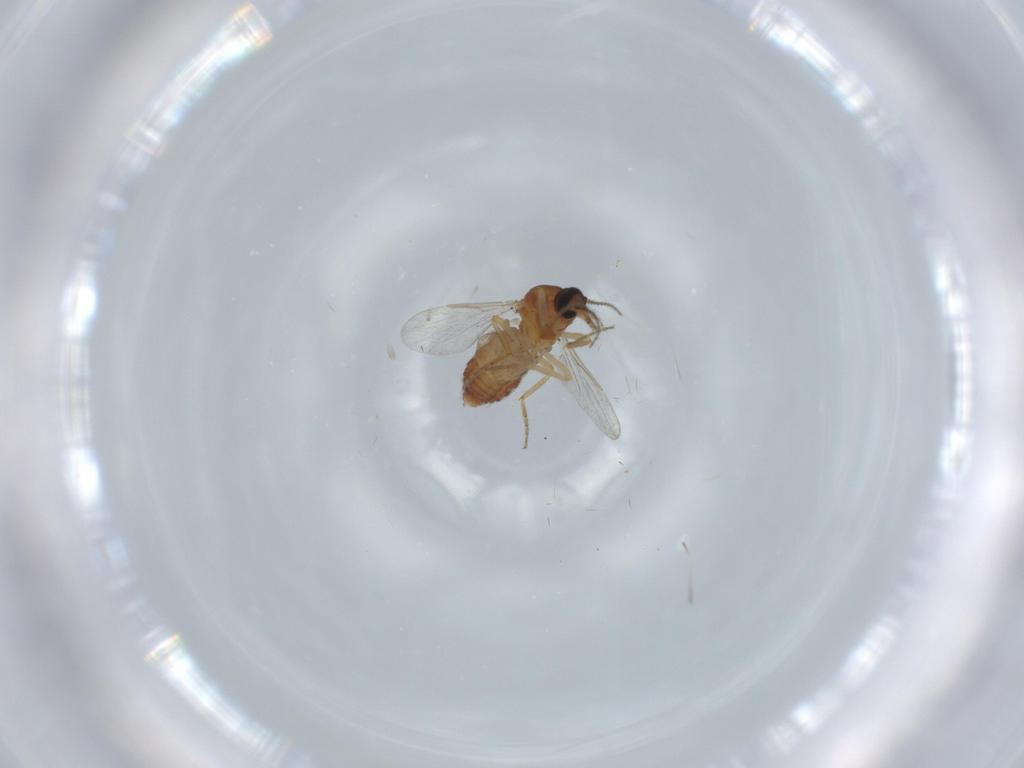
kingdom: Animalia
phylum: Arthropoda
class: Insecta
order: Diptera
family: Ceratopogonidae
